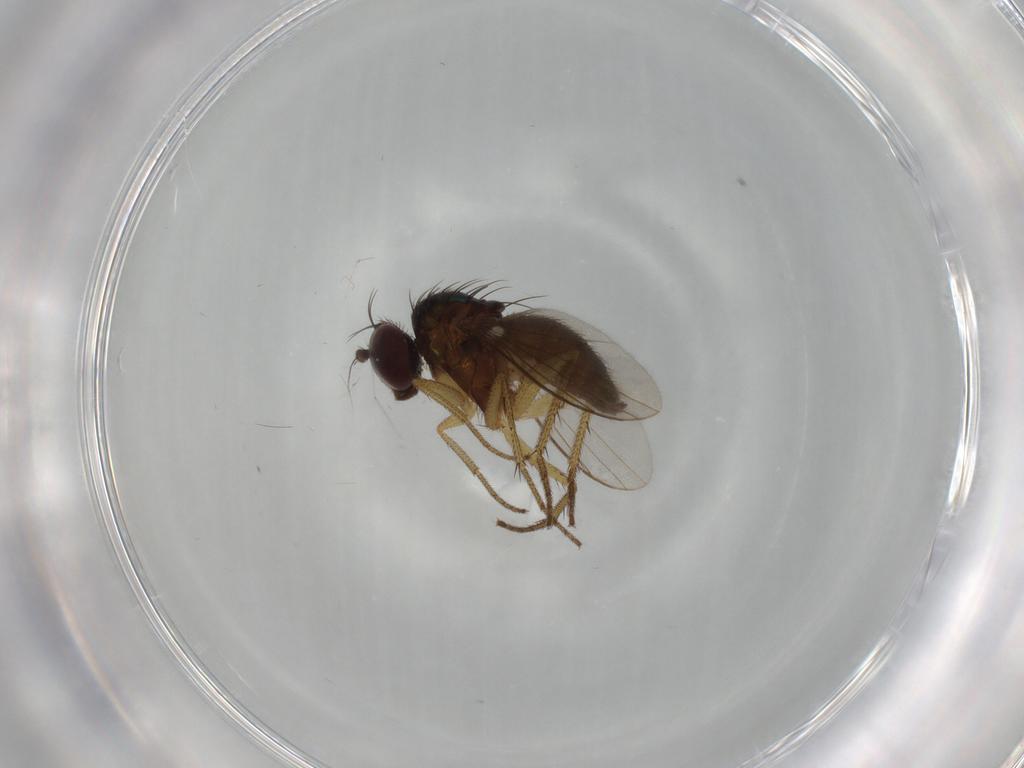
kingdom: Animalia
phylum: Arthropoda
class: Insecta
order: Diptera
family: Dolichopodidae
